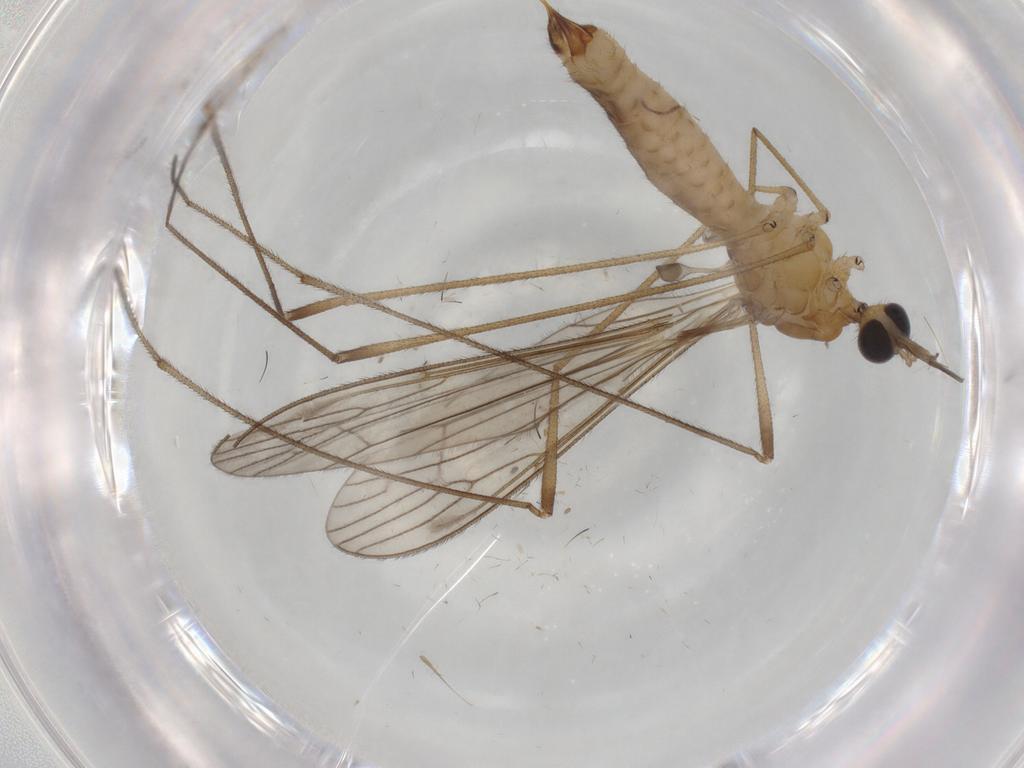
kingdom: Animalia
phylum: Arthropoda
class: Insecta
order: Diptera
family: Limoniidae
